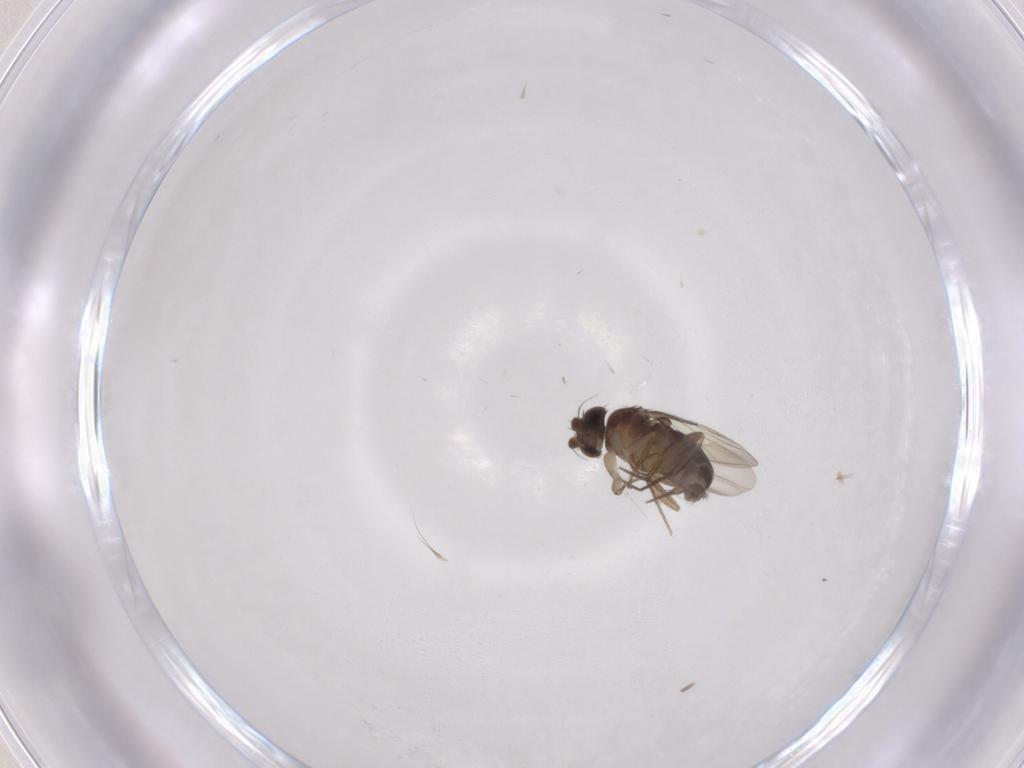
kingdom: Animalia
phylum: Arthropoda
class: Insecta
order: Diptera
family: Phoridae
